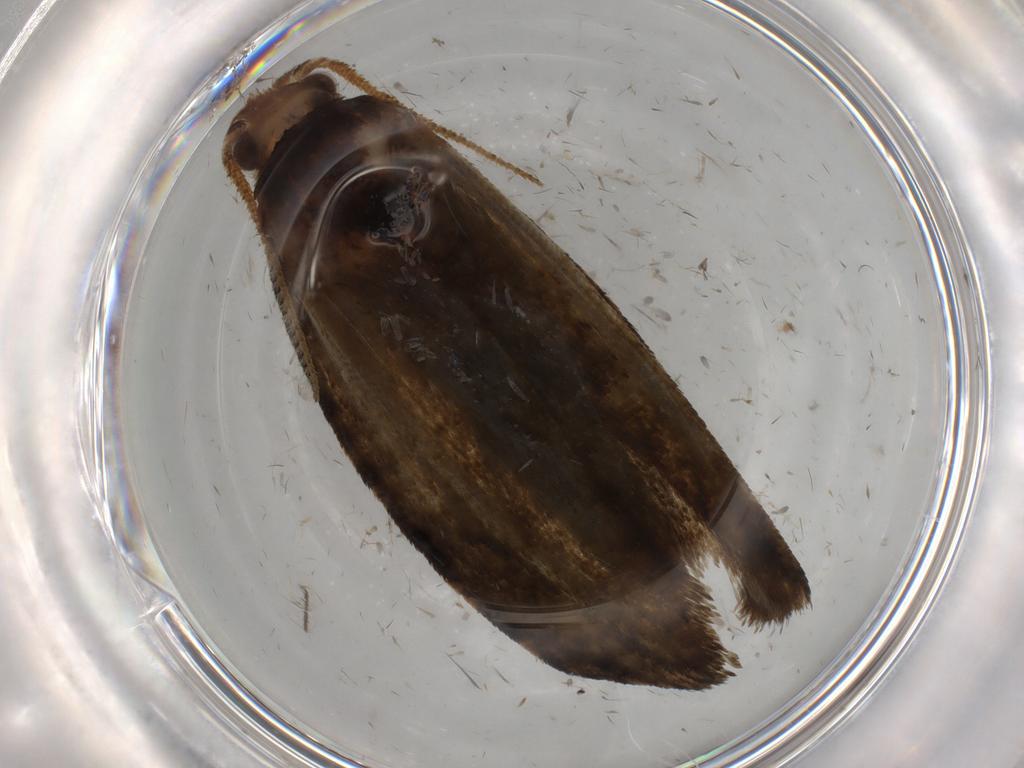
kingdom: Animalia
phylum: Arthropoda
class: Insecta
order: Lepidoptera
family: Geometridae
